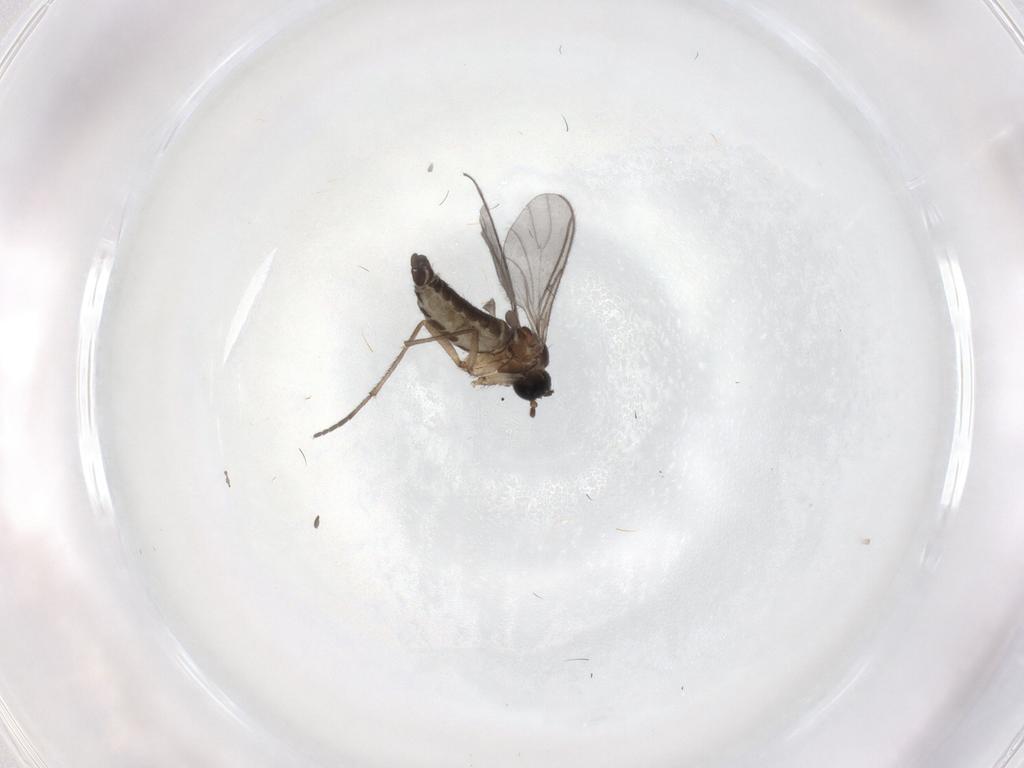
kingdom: Animalia
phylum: Arthropoda
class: Insecta
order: Diptera
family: Sciaridae
